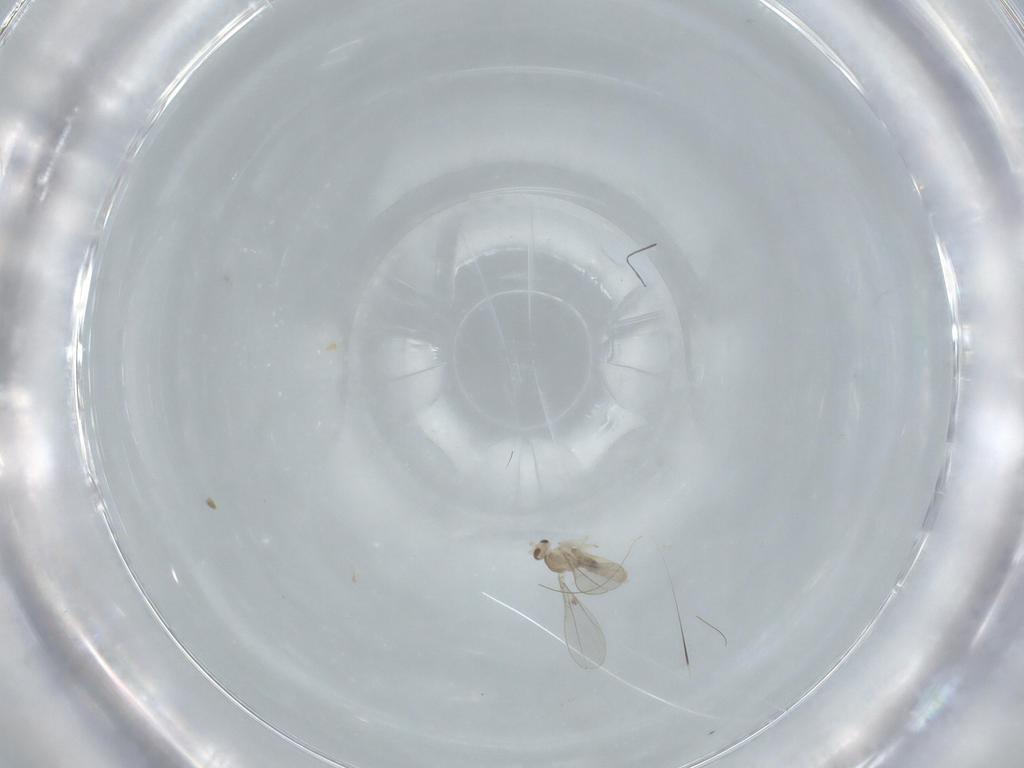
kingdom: Animalia
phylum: Arthropoda
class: Insecta
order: Diptera
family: Cecidomyiidae
